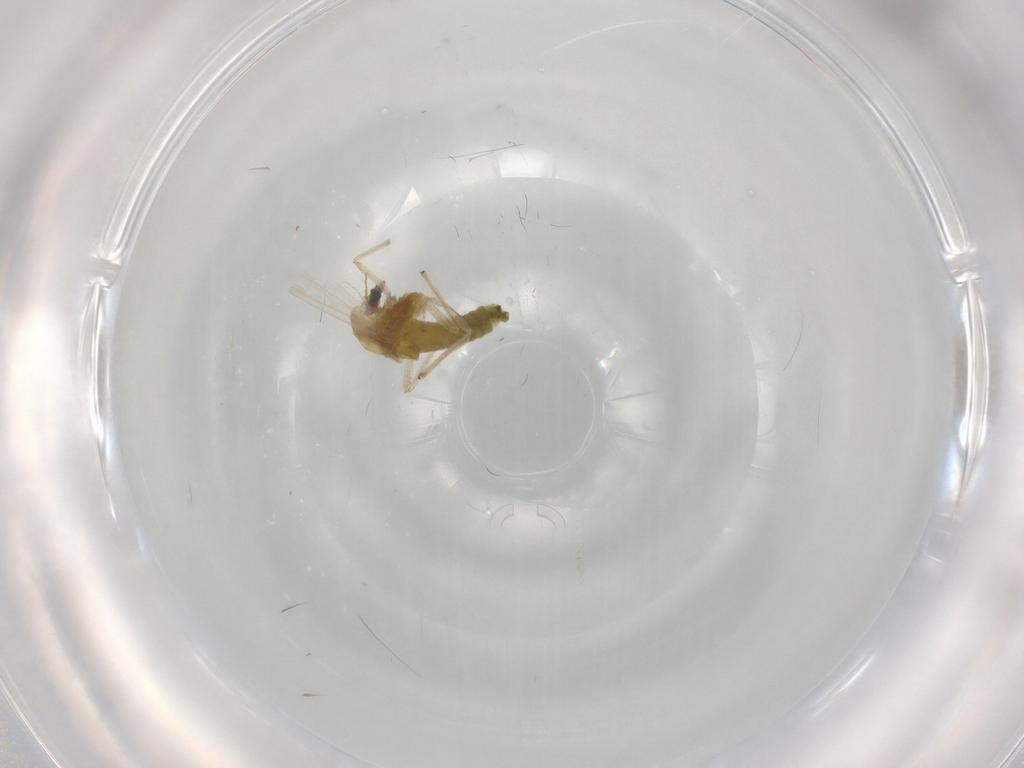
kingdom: Animalia
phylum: Arthropoda
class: Insecta
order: Diptera
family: Chironomidae
